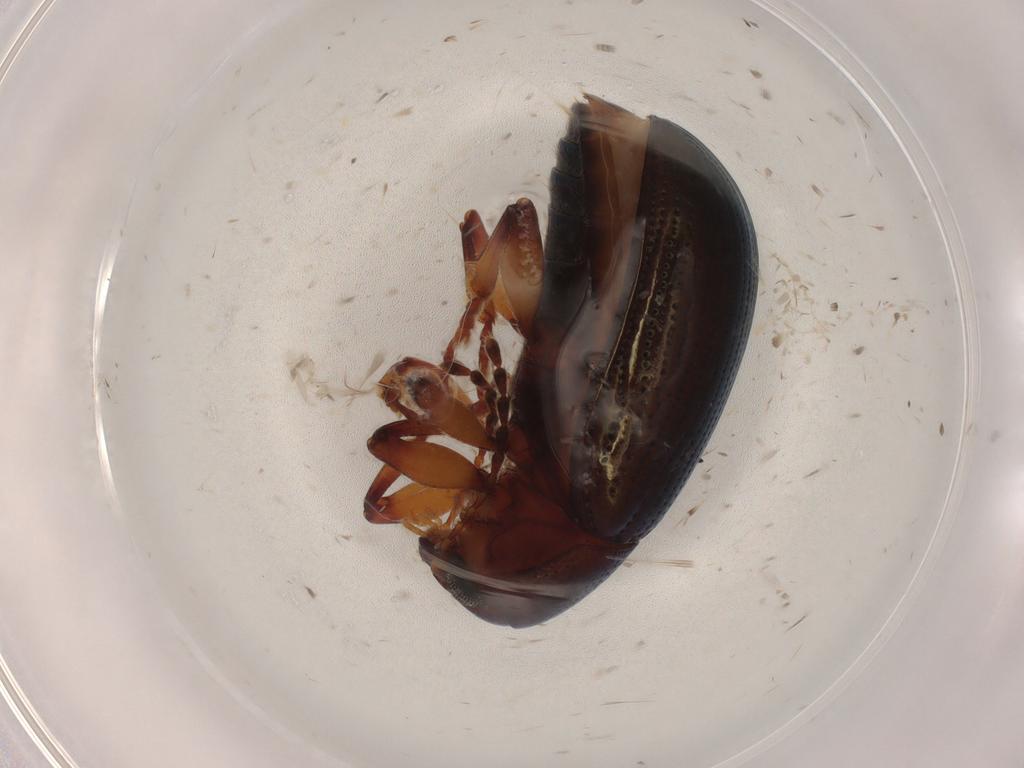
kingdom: Animalia
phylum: Arthropoda
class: Insecta
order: Coleoptera
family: Chrysomelidae
